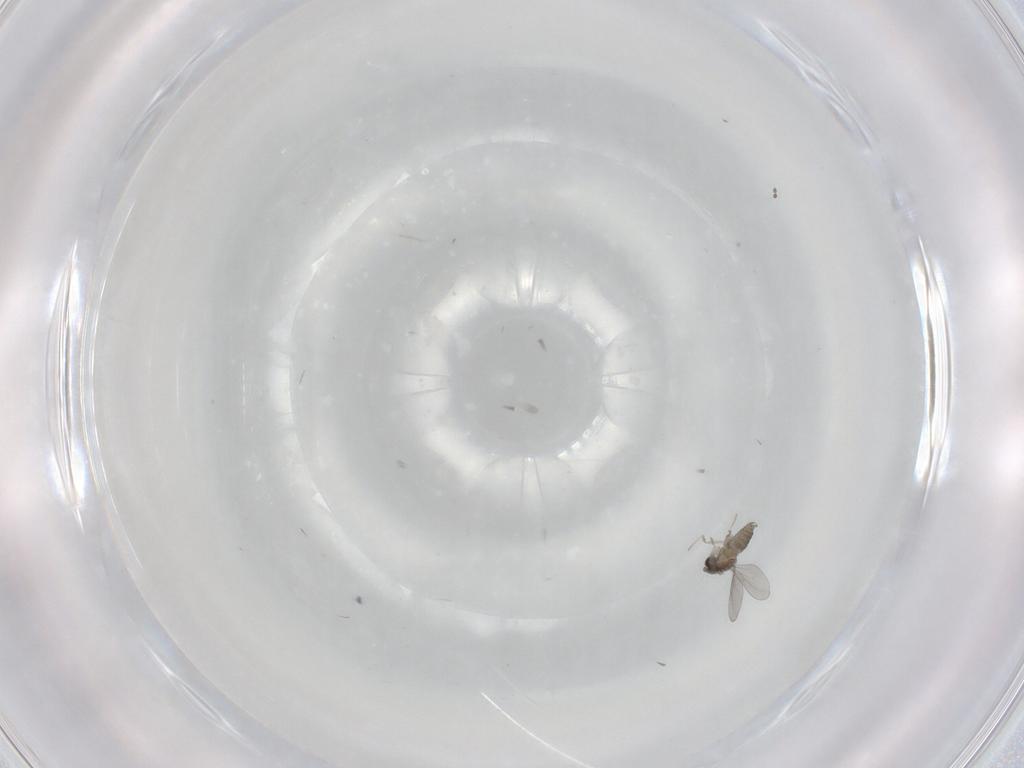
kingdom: Animalia
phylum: Arthropoda
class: Insecta
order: Diptera
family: Cecidomyiidae
